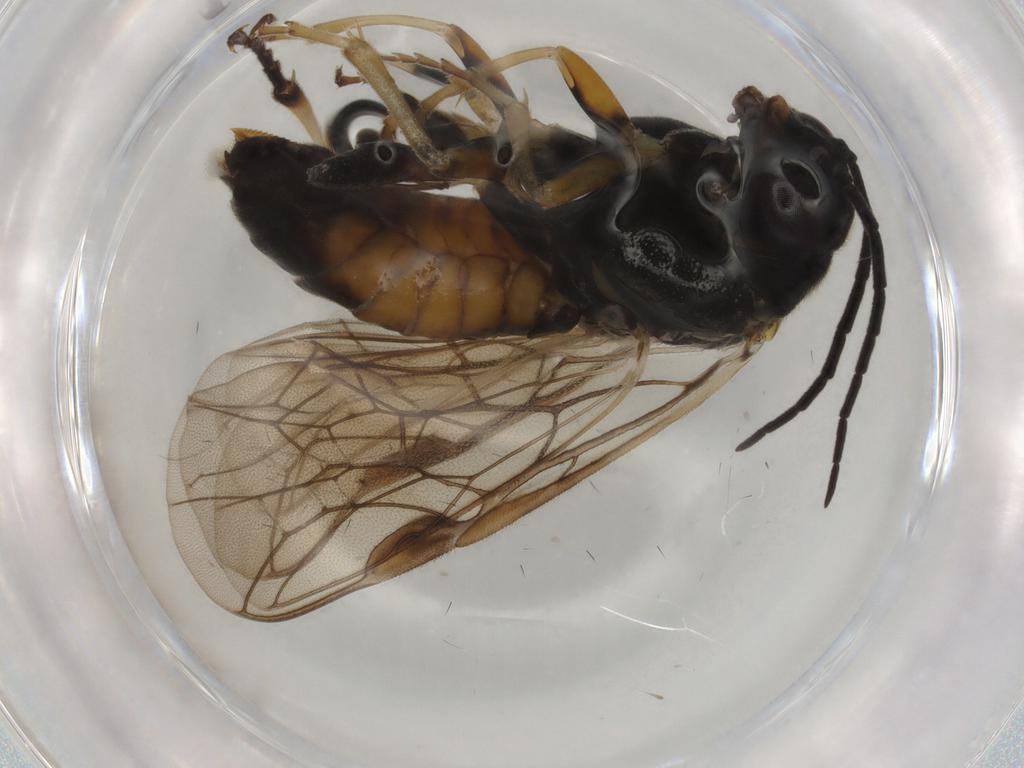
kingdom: Animalia
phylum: Arthropoda
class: Insecta
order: Hymenoptera
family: Tenthredinidae
